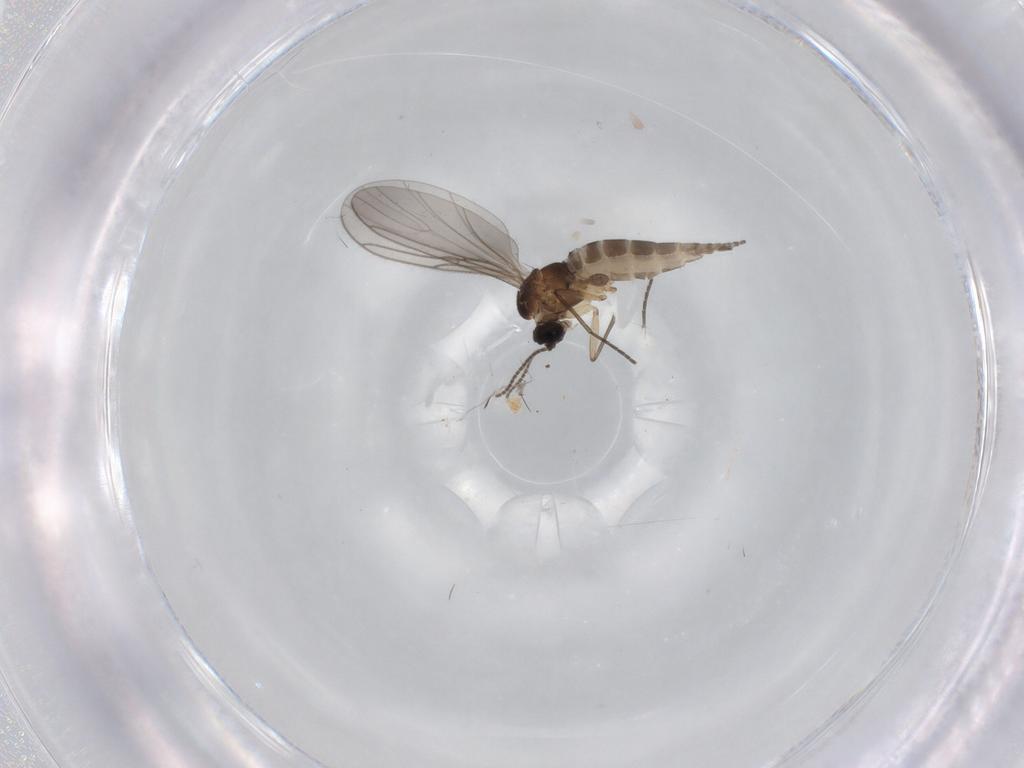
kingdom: Animalia
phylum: Arthropoda
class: Insecta
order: Diptera
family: Sciaridae
